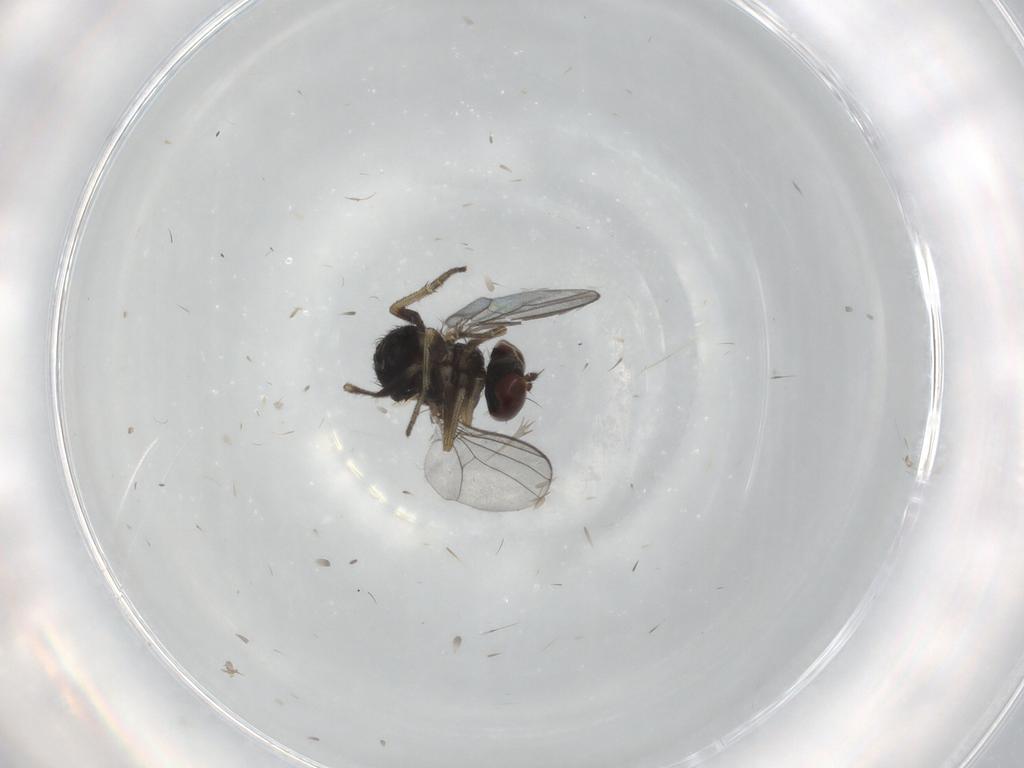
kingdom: Animalia
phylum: Arthropoda
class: Insecta
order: Diptera
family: Dolichopodidae
